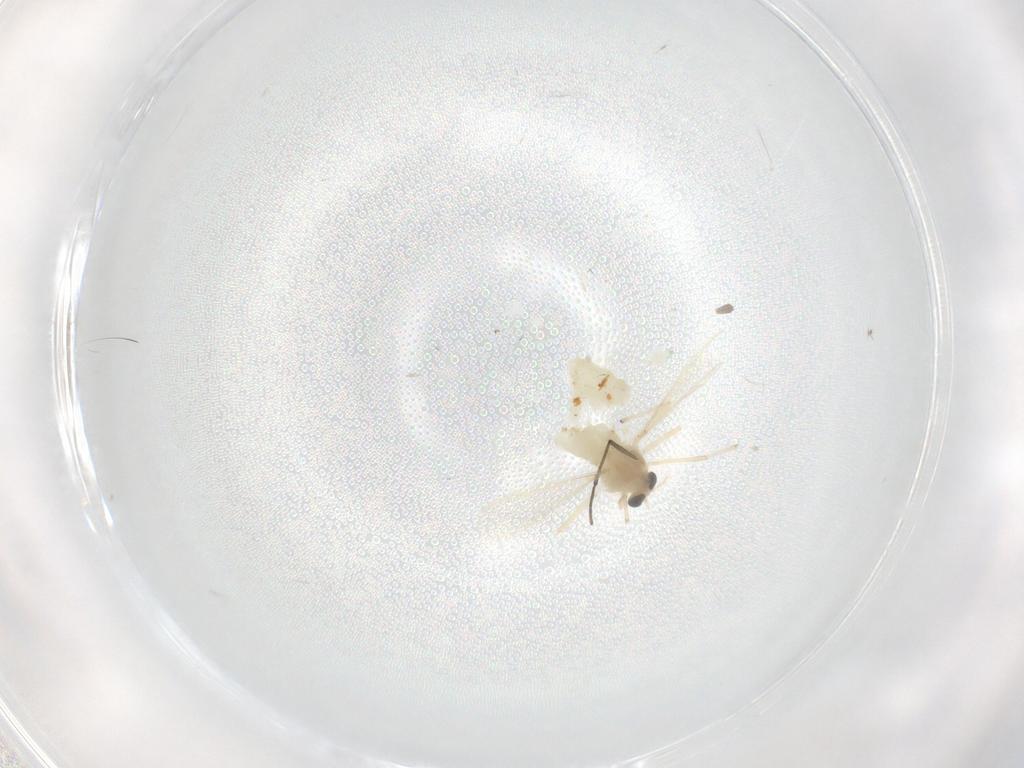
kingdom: Animalia
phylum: Arthropoda
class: Insecta
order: Diptera
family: Chironomidae
